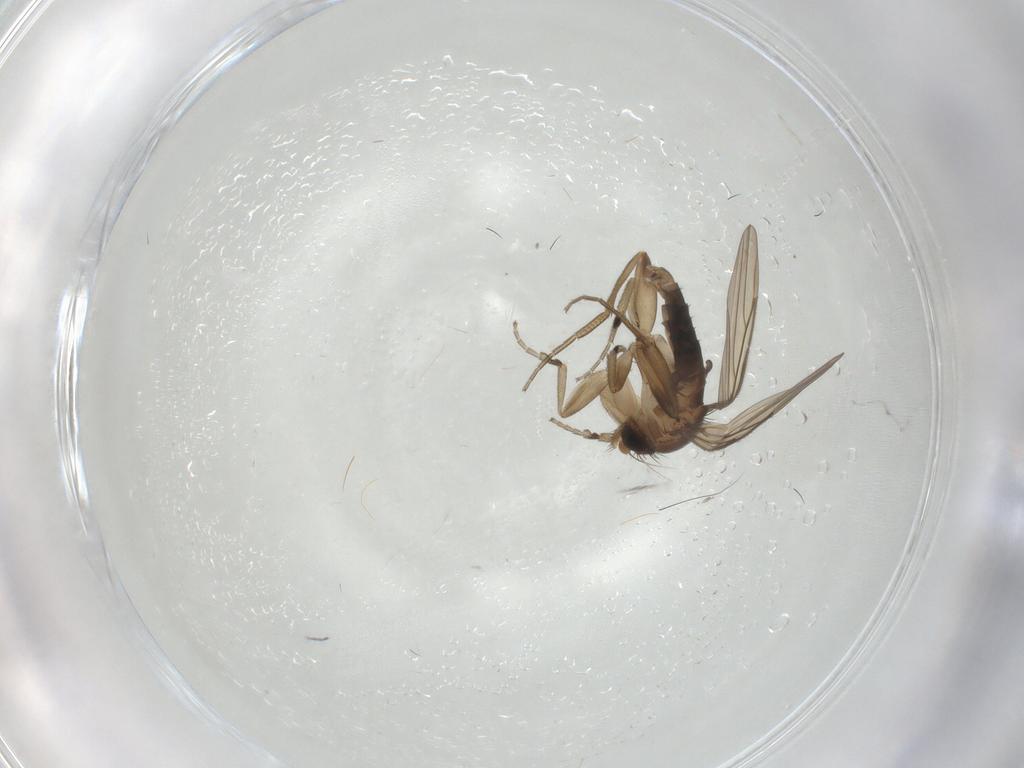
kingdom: Animalia
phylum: Arthropoda
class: Insecta
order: Diptera
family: Phoridae
